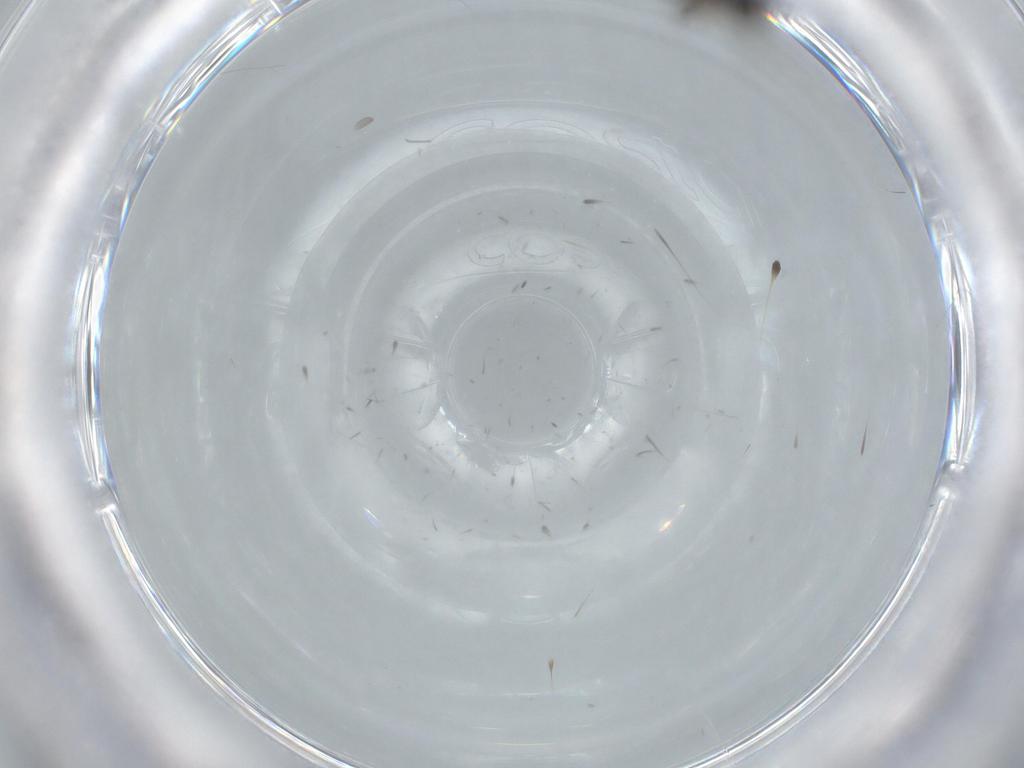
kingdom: Animalia
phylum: Arthropoda
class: Insecta
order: Hymenoptera
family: Bethylidae
